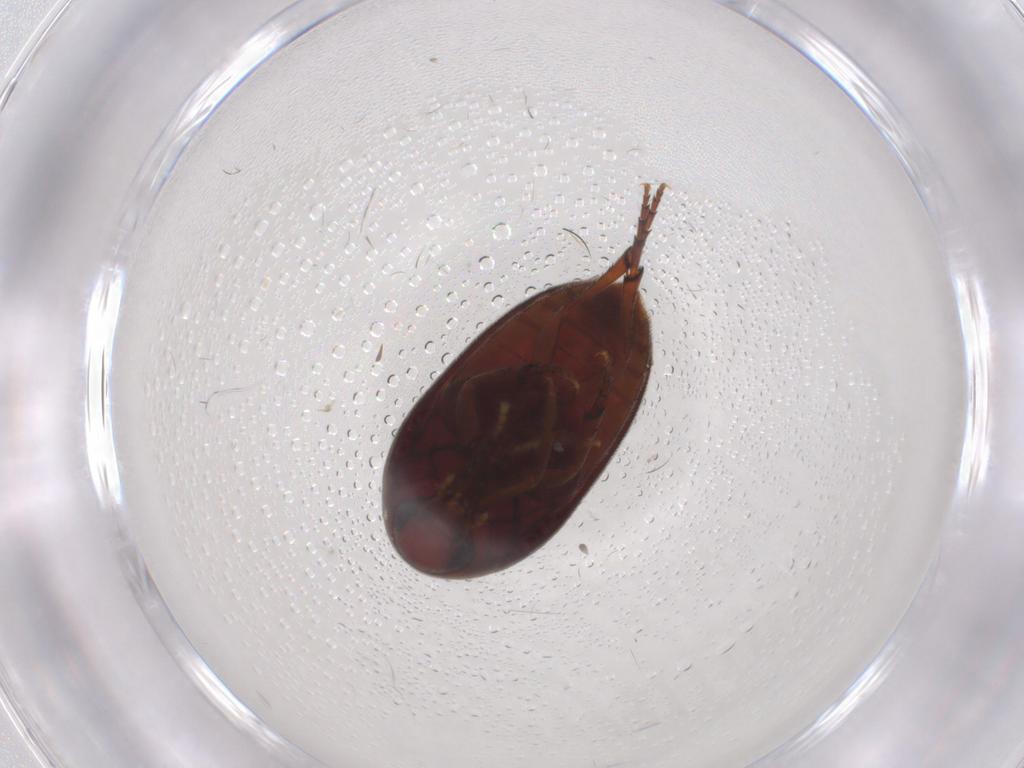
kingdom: Animalia
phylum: Arthropoda
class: Insecta
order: Coleoptera
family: Eucinetidae
